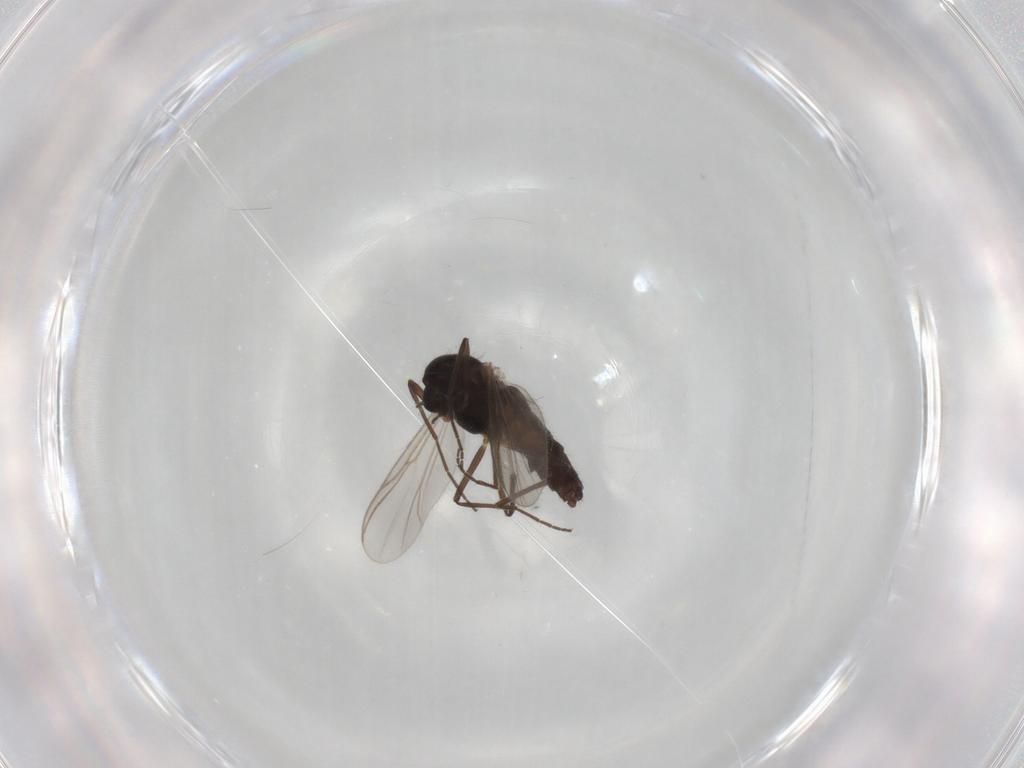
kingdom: Animalia
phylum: Arthropoda
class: Insecta
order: Diptera
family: Chironomidae
